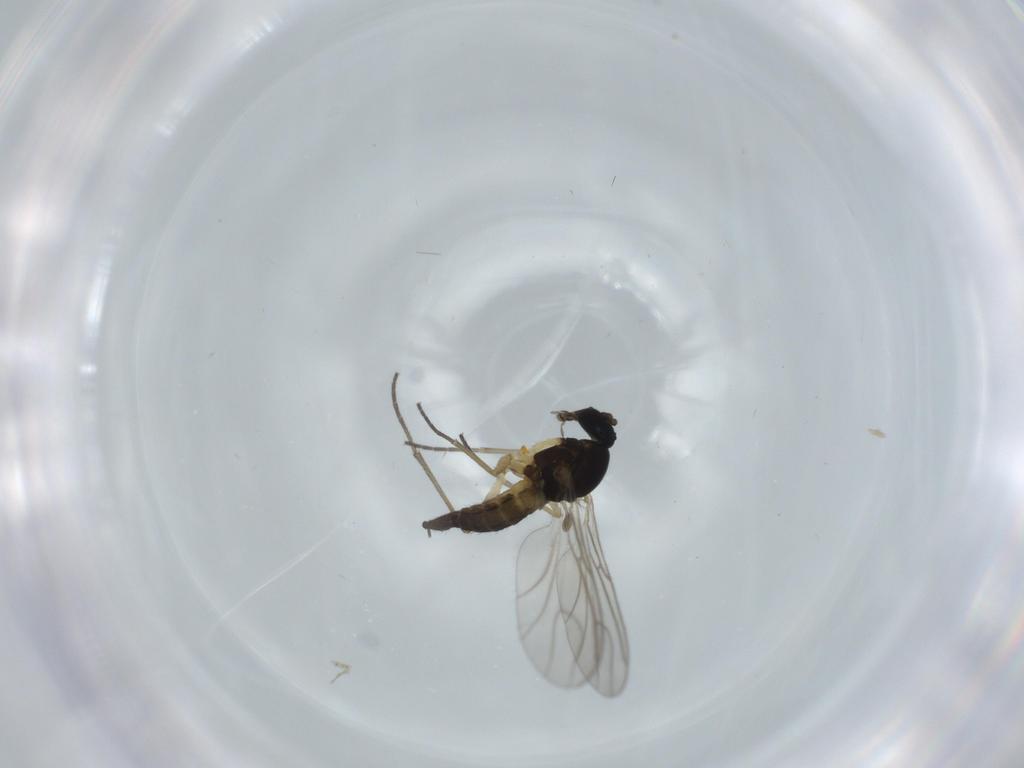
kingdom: Animalia
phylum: Arthropoda
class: Insecta
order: Diptera
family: Sciaridae
